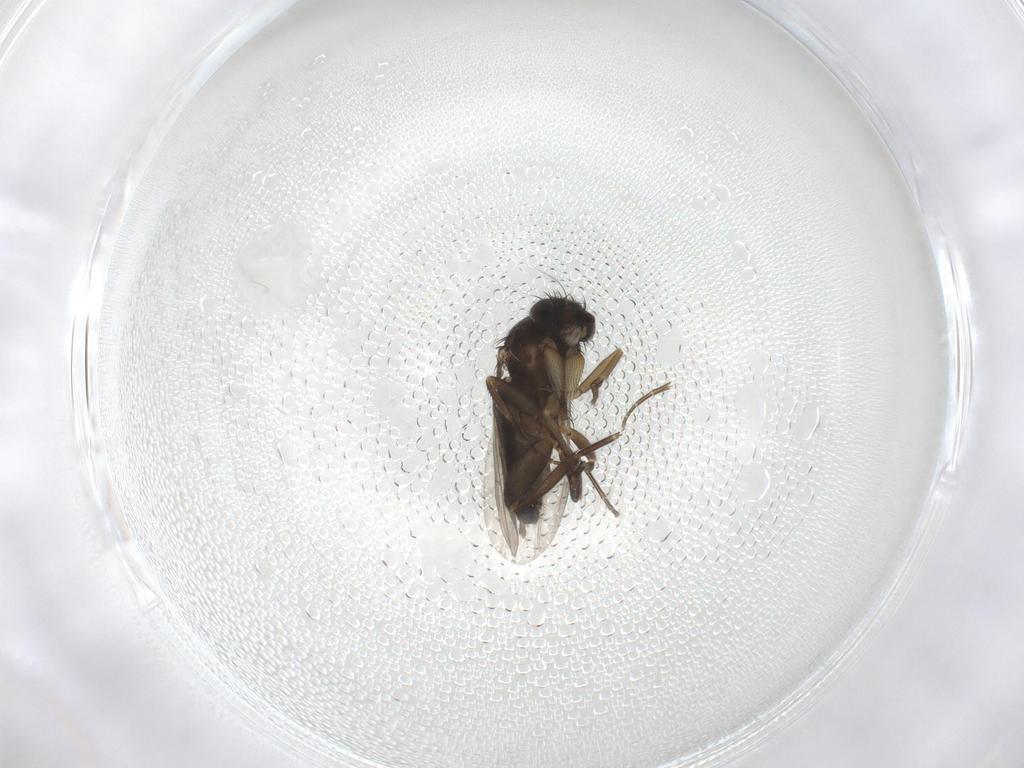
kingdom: Animalia
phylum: Arthropoda
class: Insecta
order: Diptera
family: Phoridae
